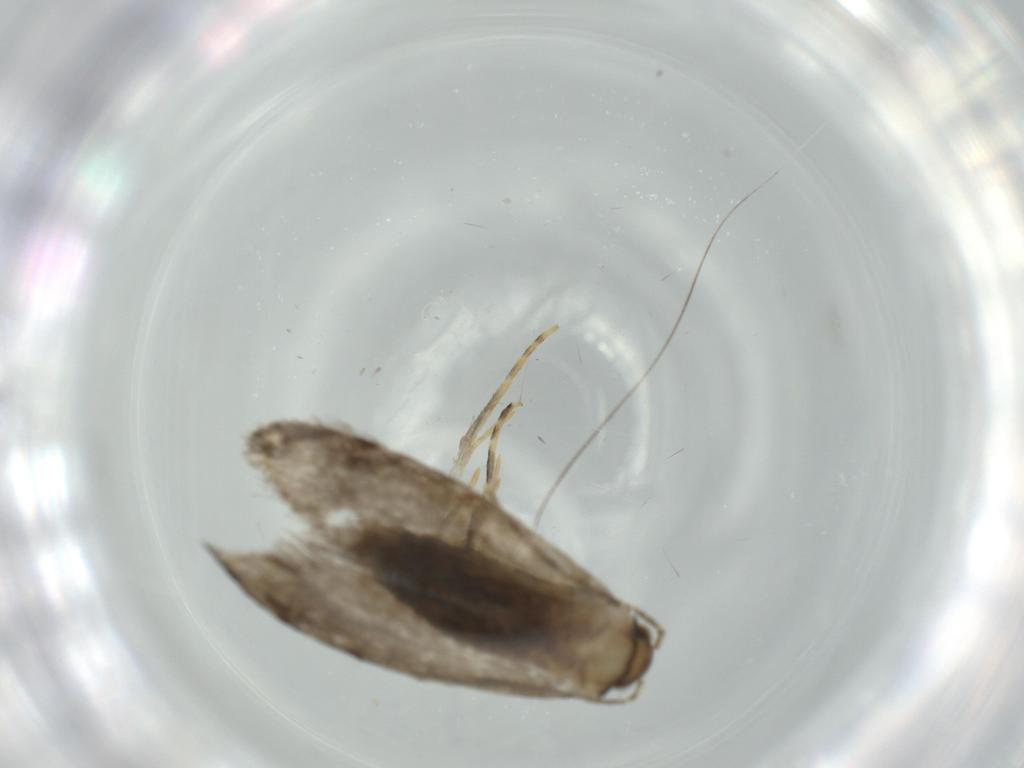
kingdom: Animalia
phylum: Arthropoda
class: Insecta
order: Lepidoptera
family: Tineidae
